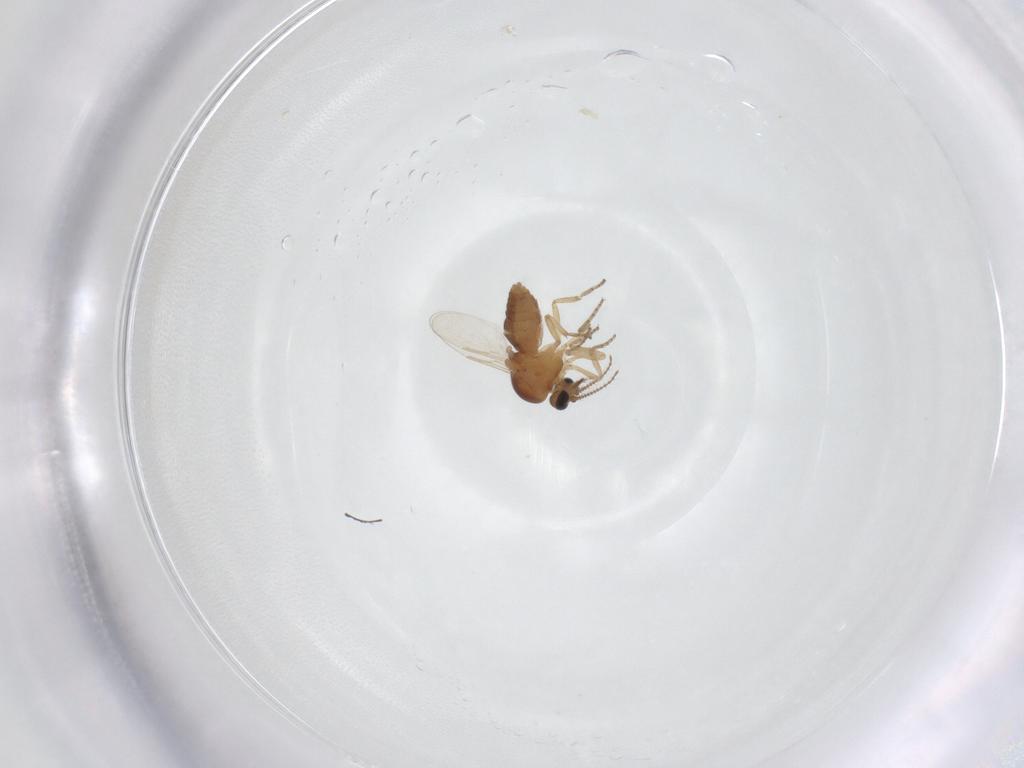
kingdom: Animalia
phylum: Arthropoda
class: Insecta
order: Diptera
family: Ceratopogonidae
